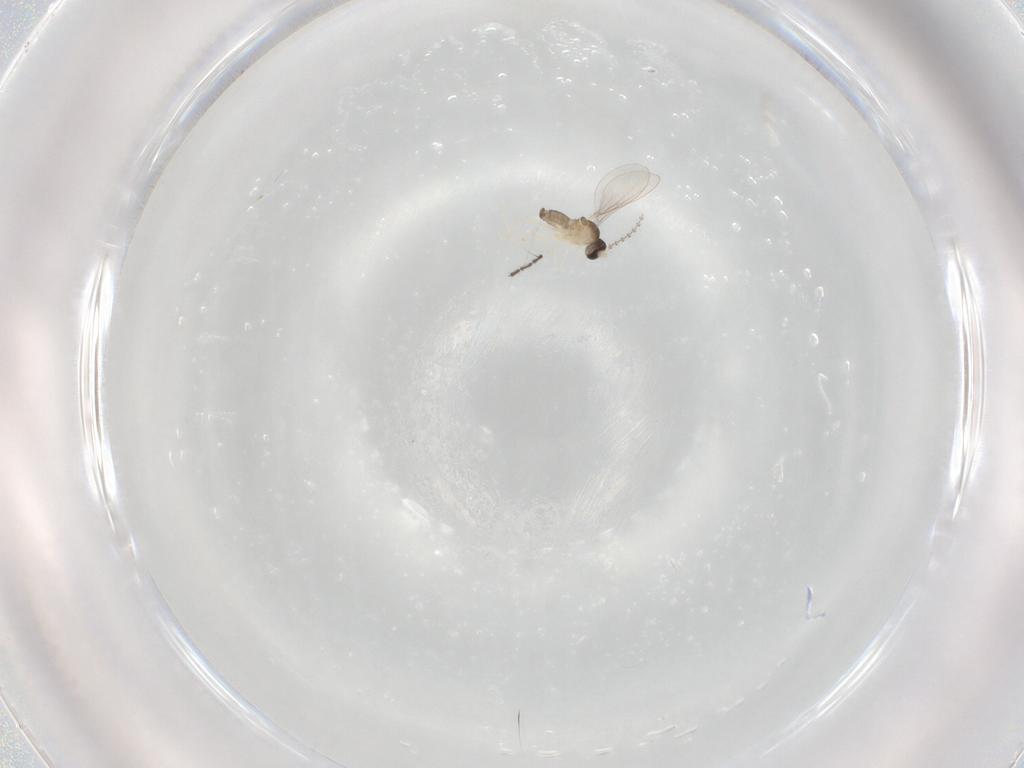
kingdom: Animalia
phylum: Arthropoda
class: Insecta
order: Diptera
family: Cecidomyiidae
